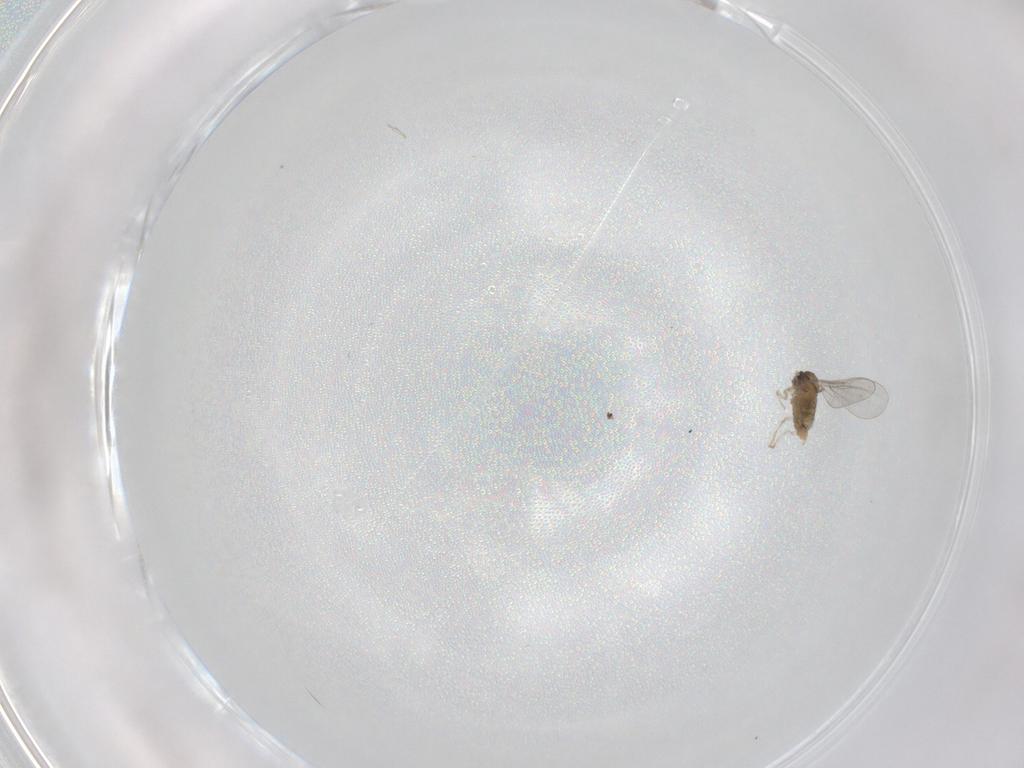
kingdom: Animalia
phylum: Arthropoda
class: Insecta
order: Diptera
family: Cecidomyiidae
